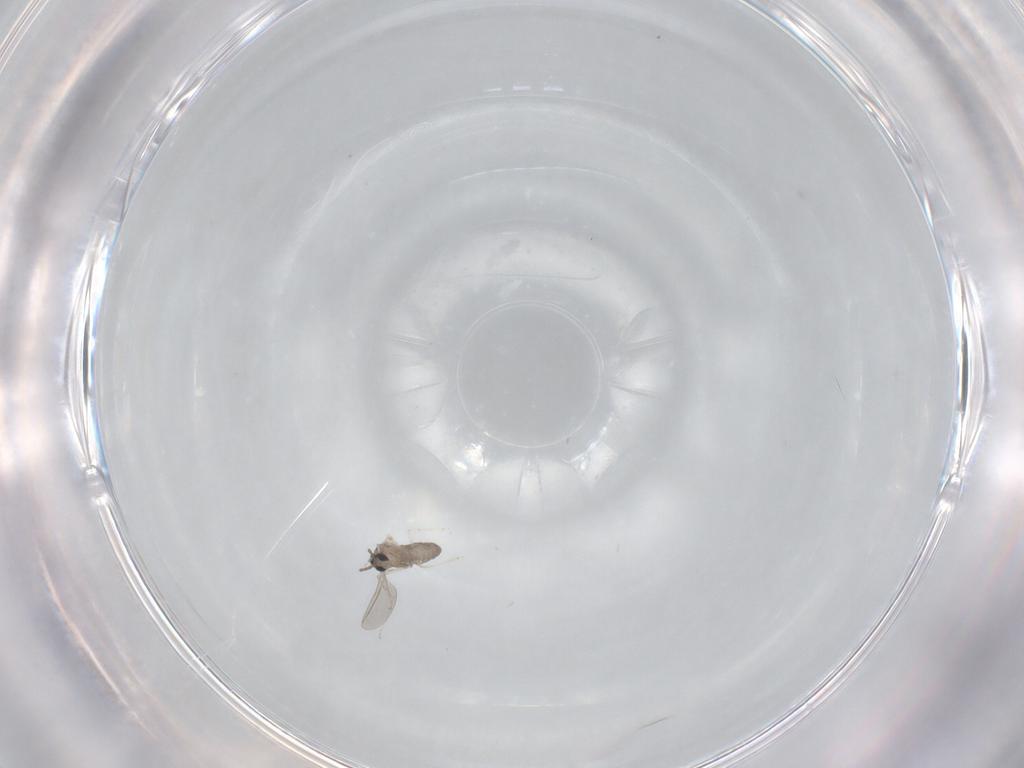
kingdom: Animalia
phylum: Arthropoda
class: Insecta
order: Diptera
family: Cecidomyiidae
